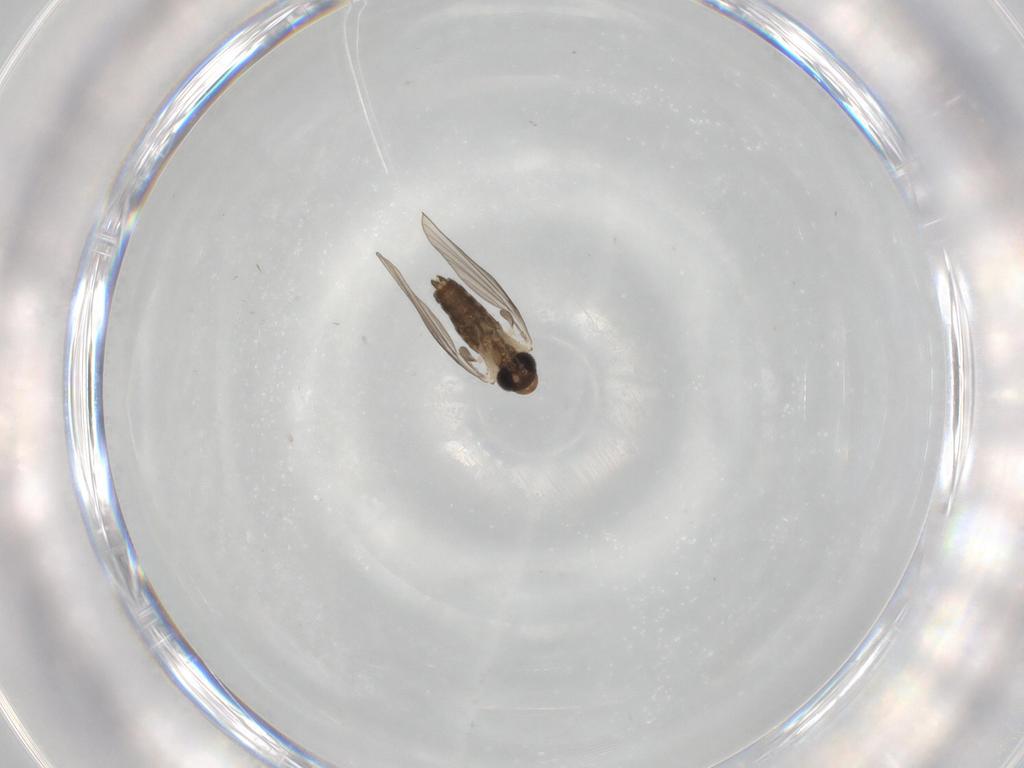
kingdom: Animalia
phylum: Arthropoda
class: Insecta
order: Diptera
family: Psychodidae
